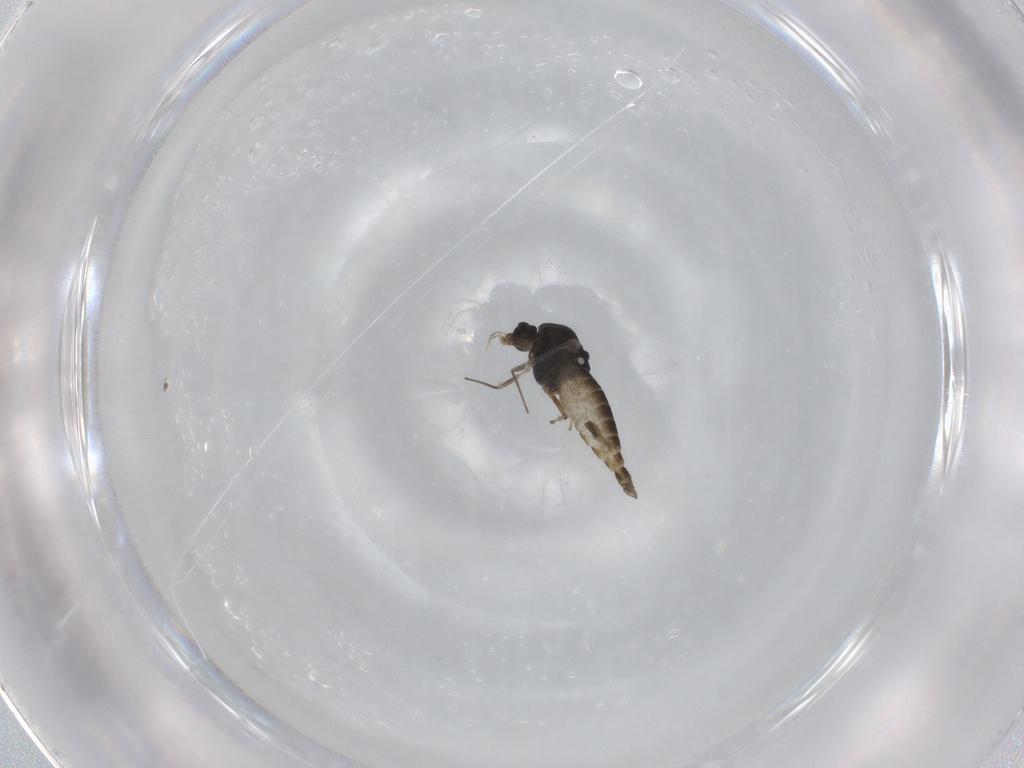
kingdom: Animalia
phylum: Arthropoda
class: Insecta
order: Diptera
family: Chironomidae
